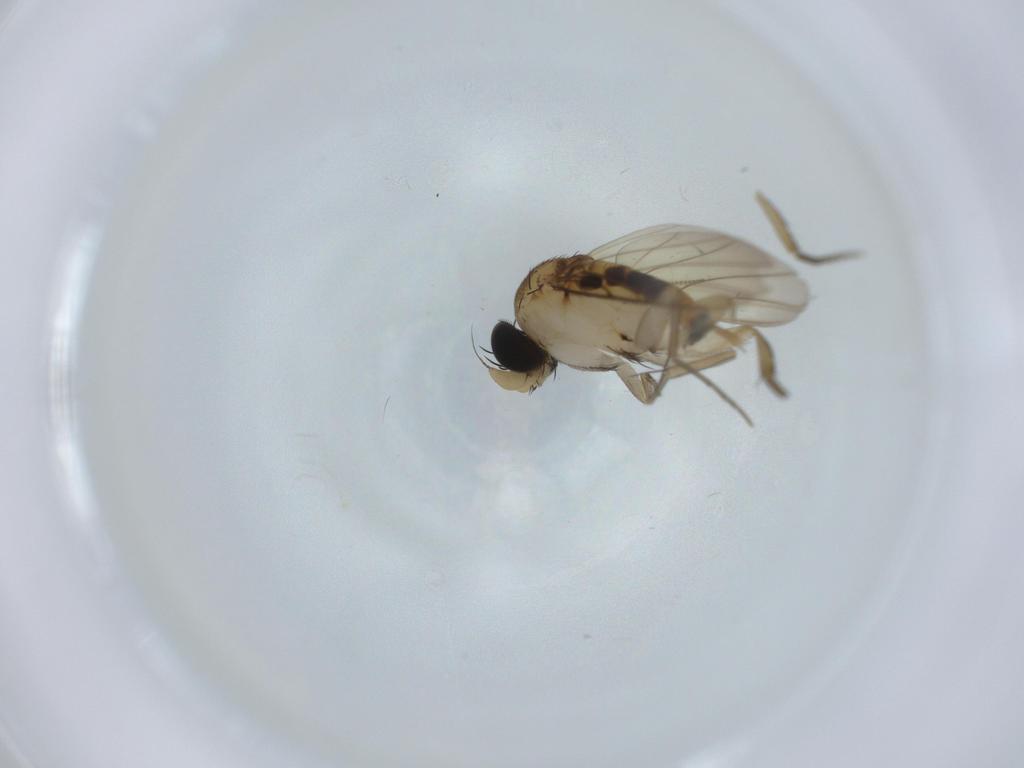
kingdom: Animalia
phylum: Arthropoda
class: Insecta
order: Diptera
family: Phoridae
